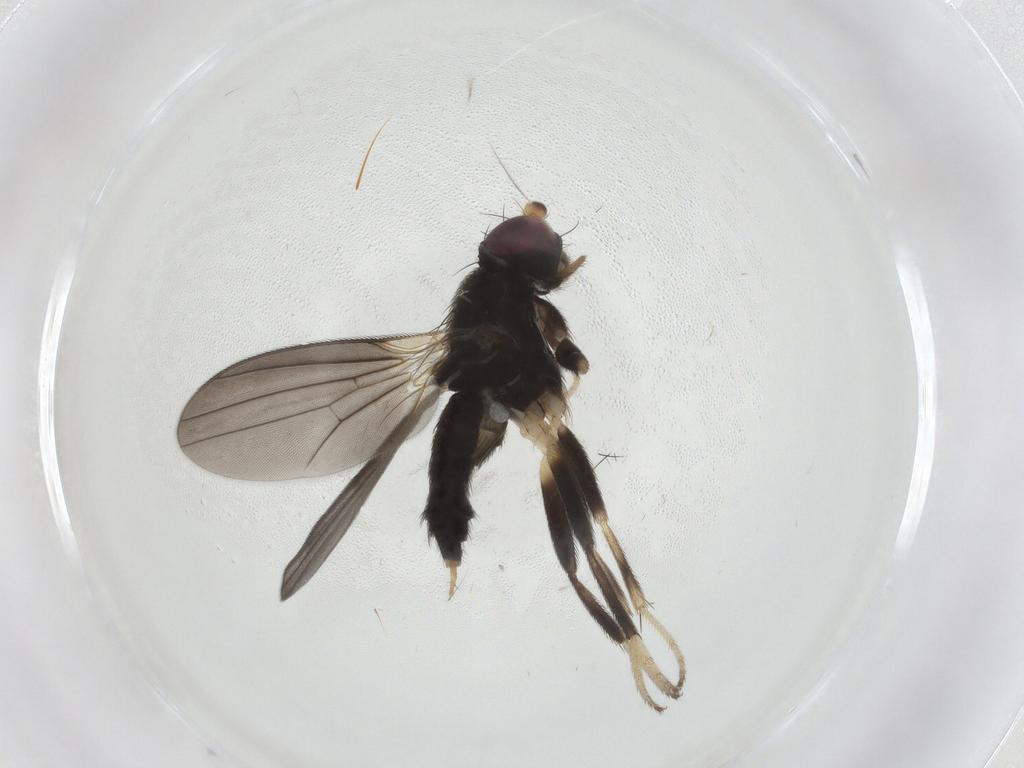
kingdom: Animalia
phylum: Arthropoda
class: Insecta
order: Diptera
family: Clusiidae
